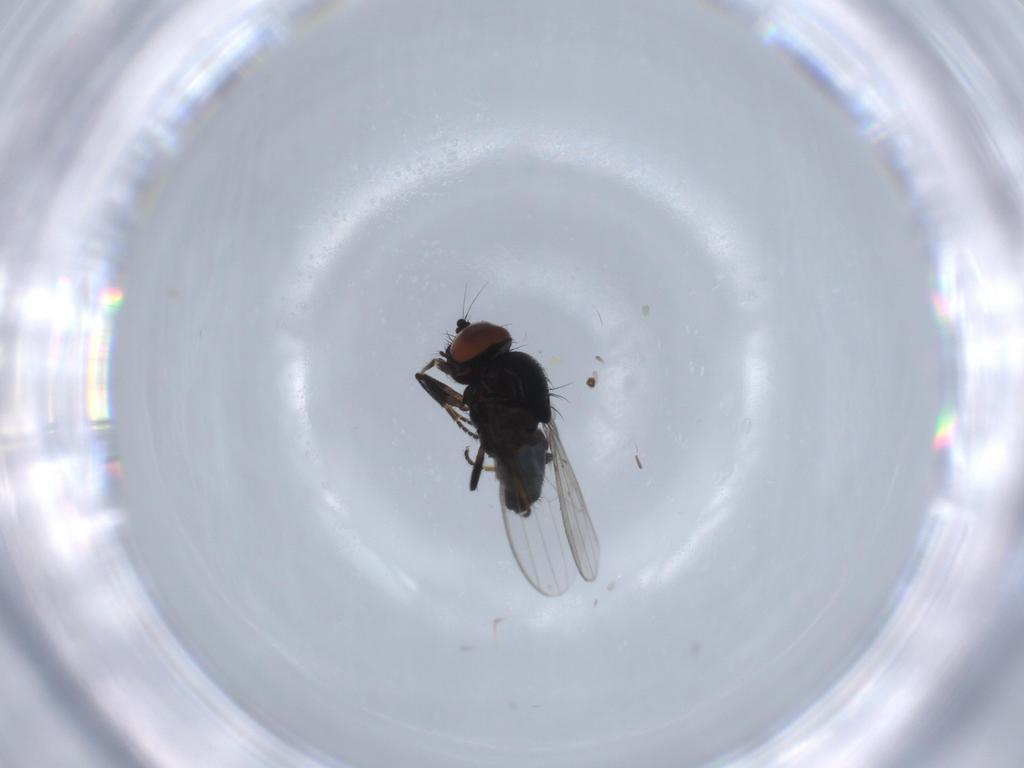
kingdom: Animalia
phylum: Arthropoda
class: Insecta
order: Diptera
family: Milichiidae
